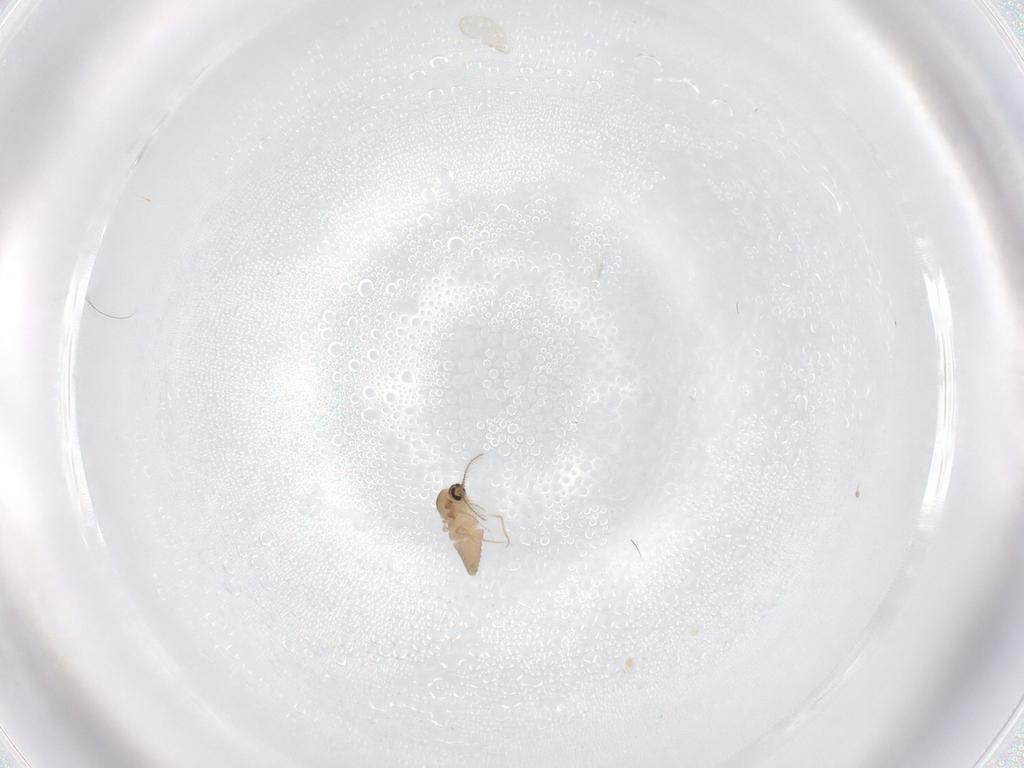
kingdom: Animalia
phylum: Arthropoda
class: Insecta
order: Diptera
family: Ceratopogonidae
